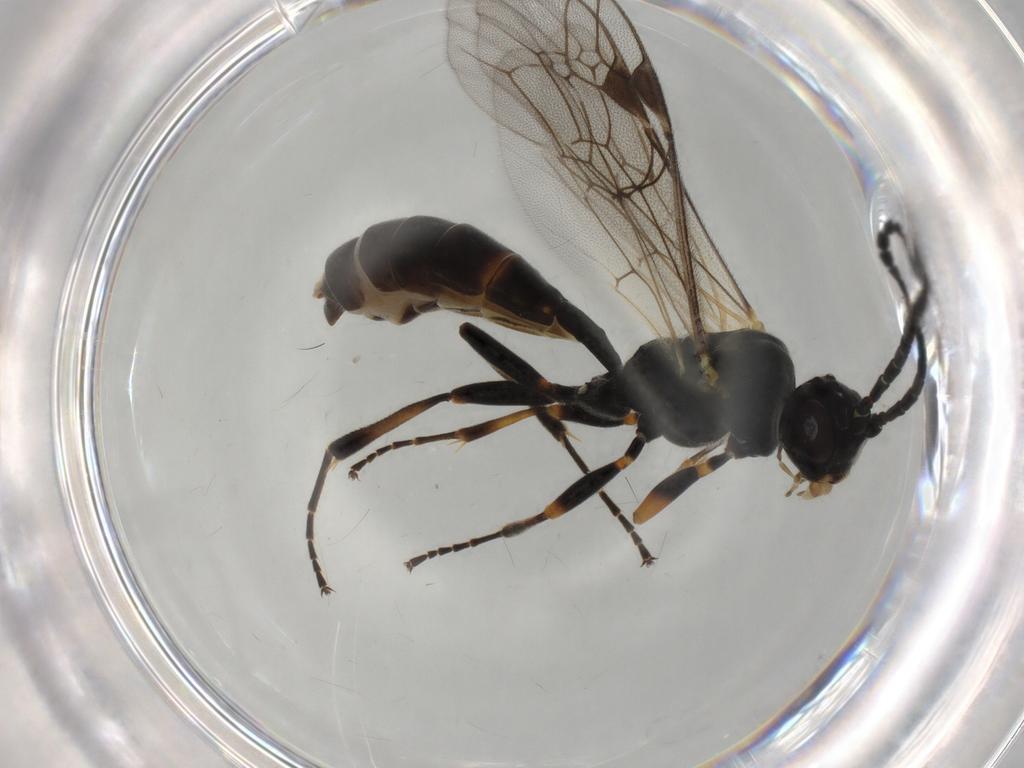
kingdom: Animalia
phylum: Arthropoda
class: Insecta
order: Hymenoptera
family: Ichneumonidae
